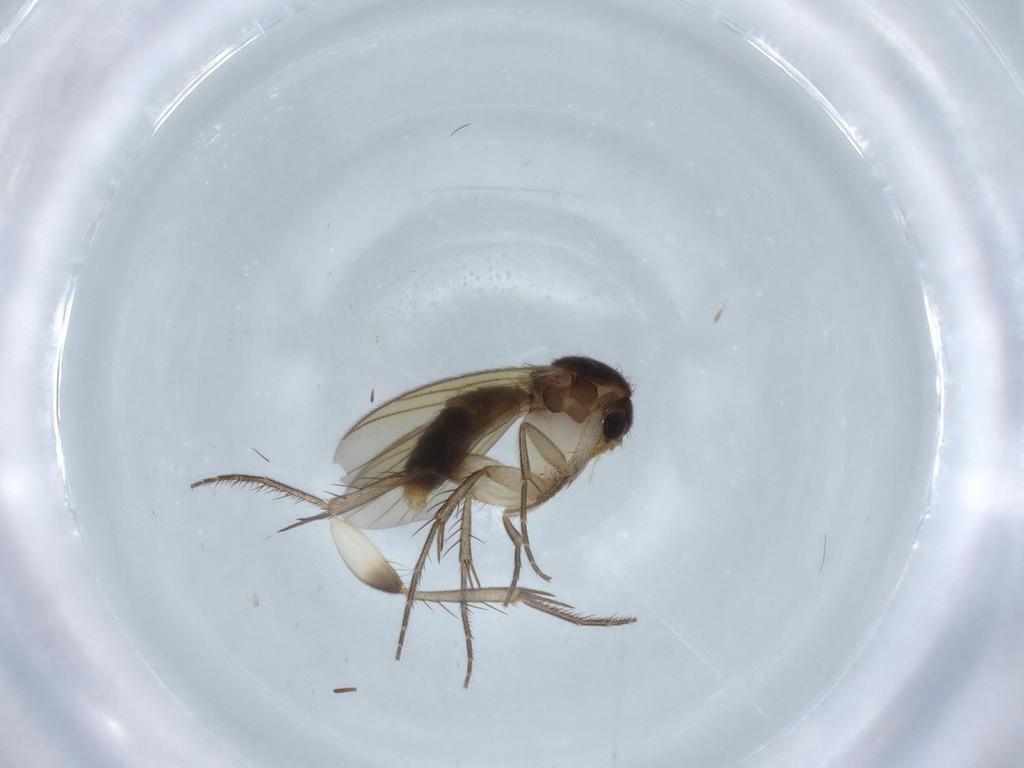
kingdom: Animalia
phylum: Arthropoda
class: Insecta
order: Diptera
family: Mycetophilidae
